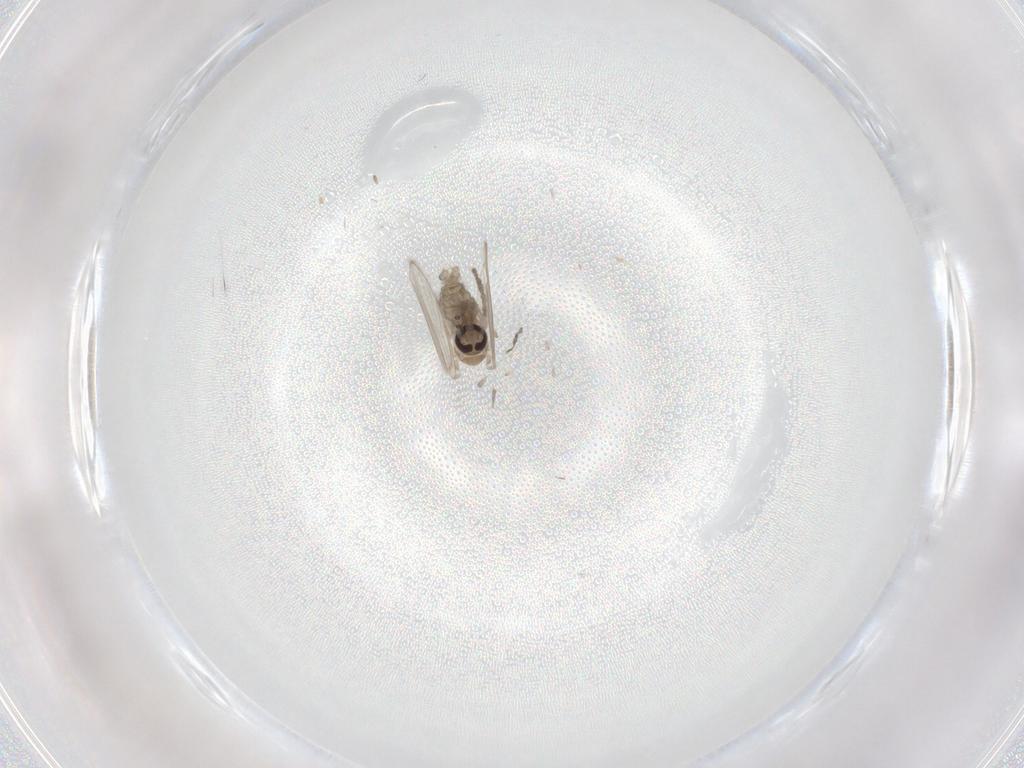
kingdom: Animalia
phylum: Arthropoda
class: Insecta
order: Diptera
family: Psychodidae
